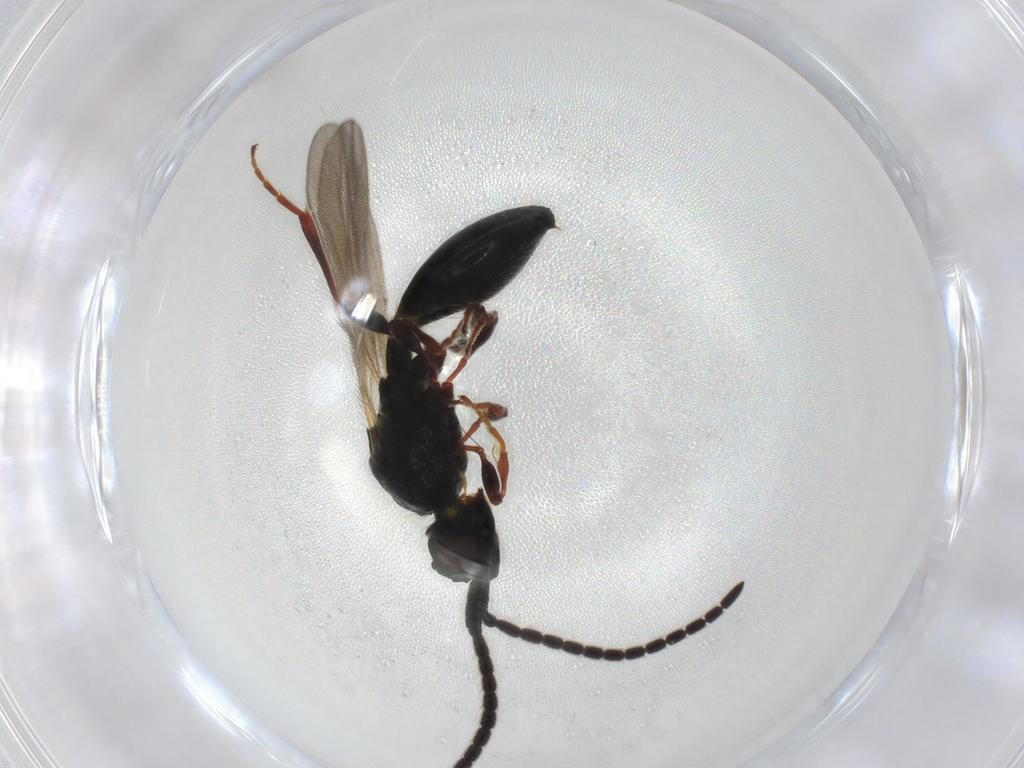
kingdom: Animalia
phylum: Arthropoda
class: Insecta
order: Hymenoptera
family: Diapriidae
